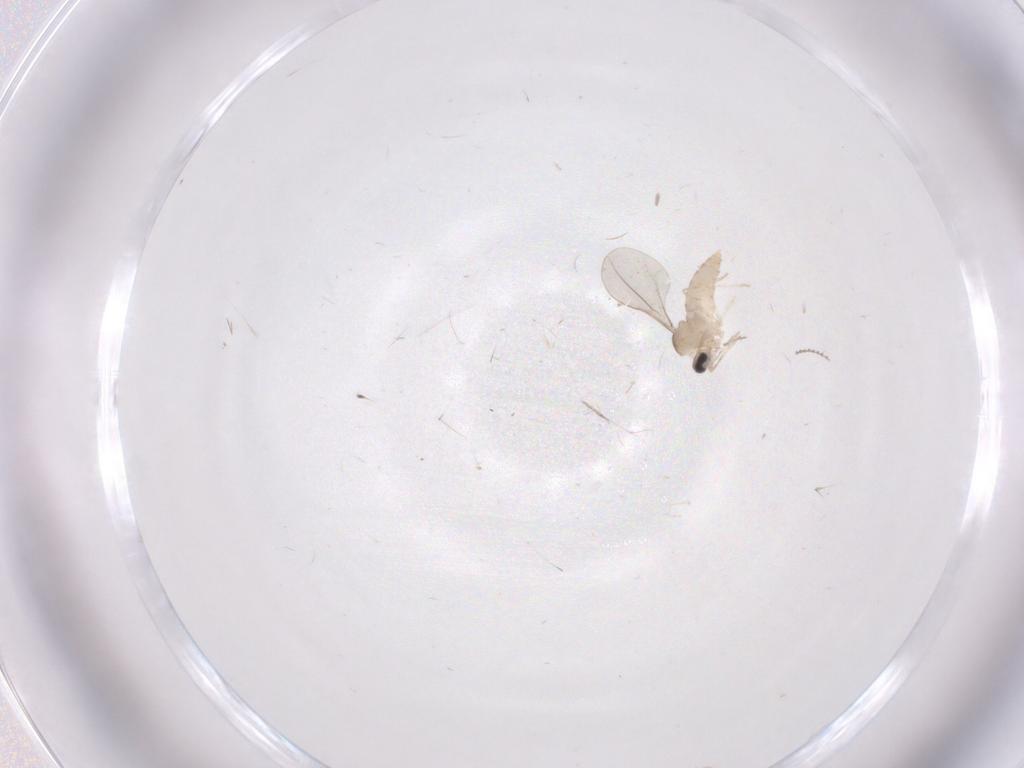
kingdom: Animalia
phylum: Arthropoda
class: Insecta
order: Diptera
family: Cecidomyiidae
